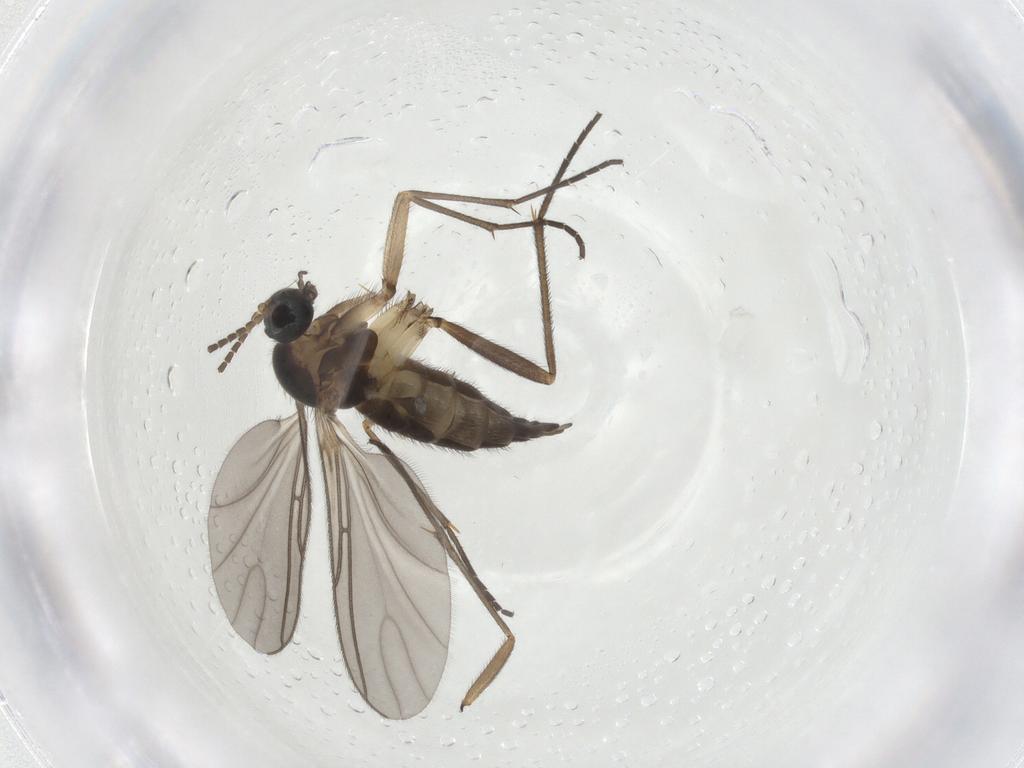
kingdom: Animalia
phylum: Arthropoda
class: Insecta
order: Diptera
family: Sciaridae
